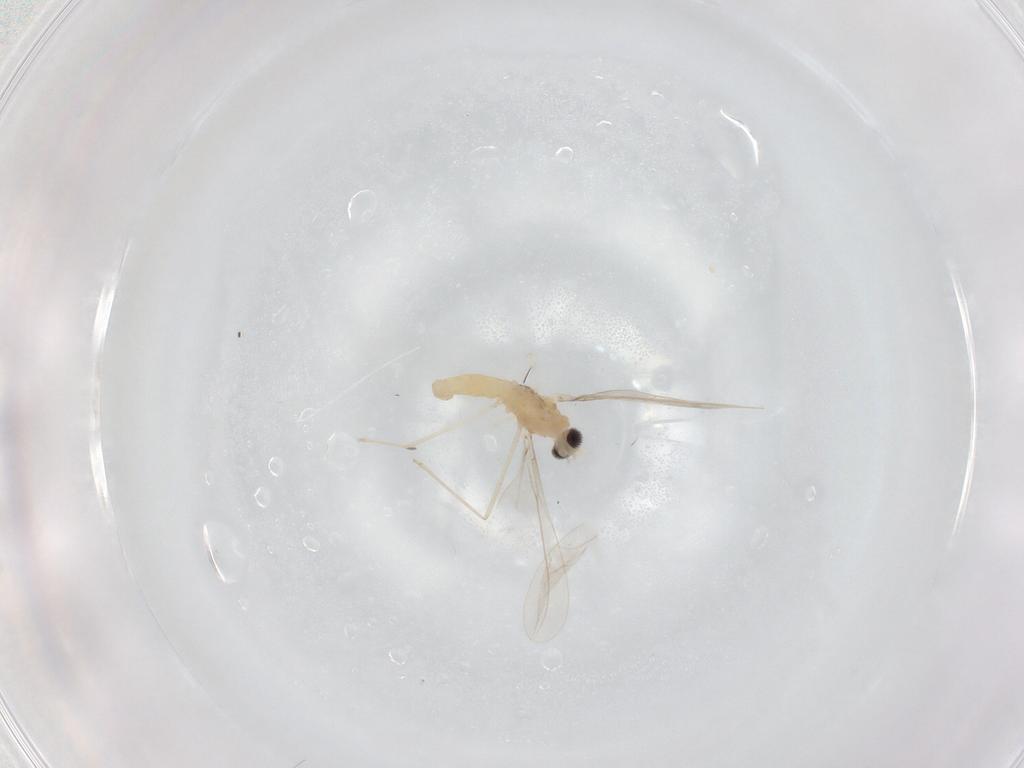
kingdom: Animalia
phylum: Arthropoda
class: Insecta
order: Diptera
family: Cecidomyiidae
